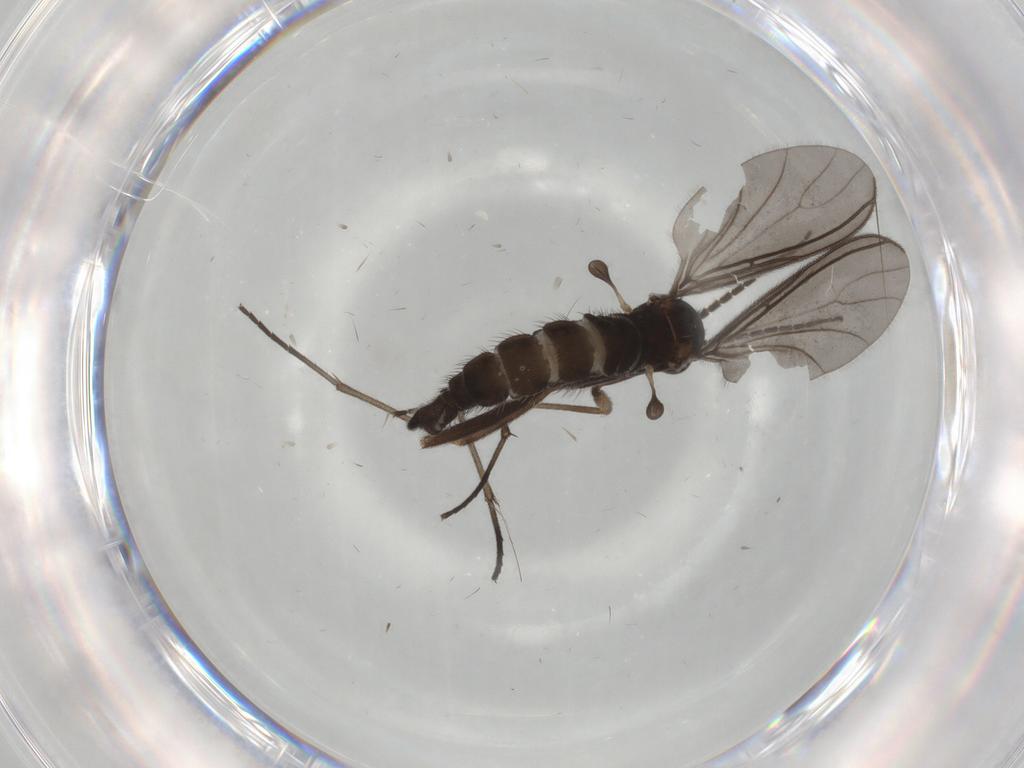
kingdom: Animalia
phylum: Arthropoda
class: Insecta
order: Diptera
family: Sciaridae
